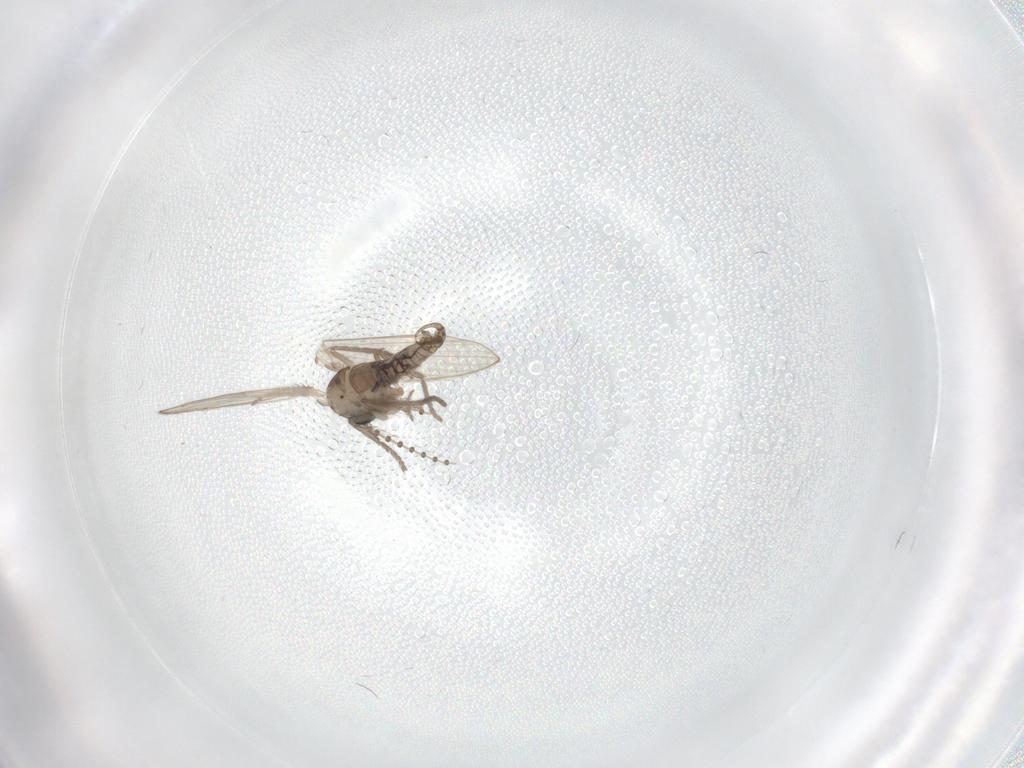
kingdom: Animalia
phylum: Arthropoda
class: Insecta
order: Diptera
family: Psychodidae
